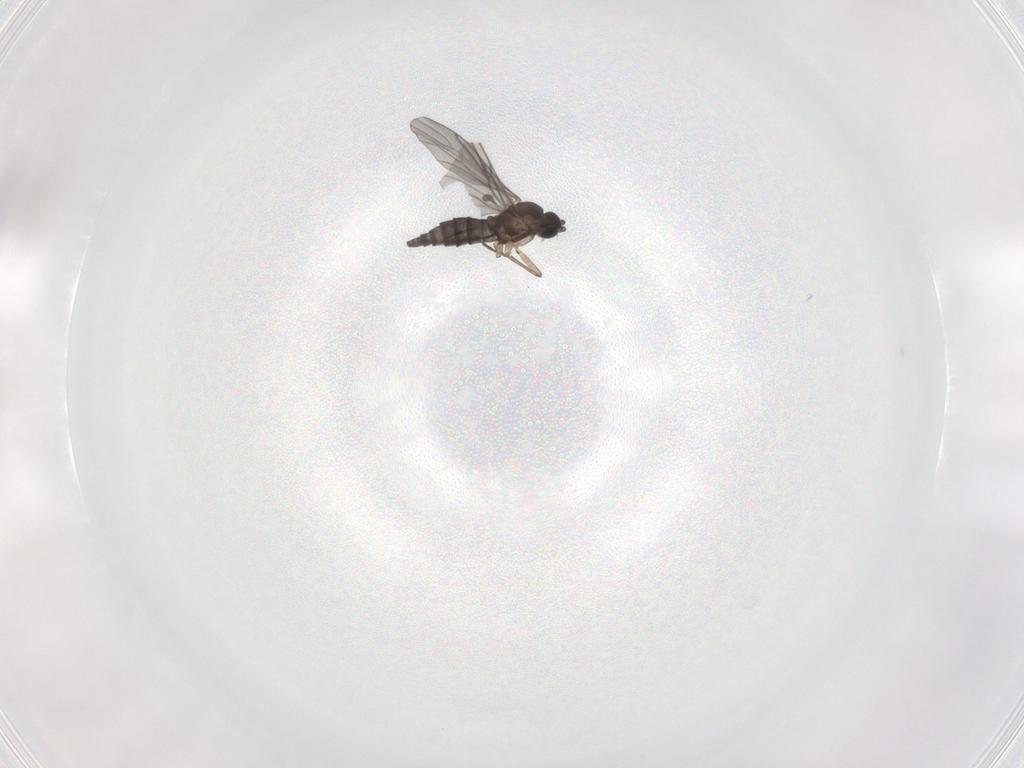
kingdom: Animalia
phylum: Arthropoda
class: Insecta
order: Diptera
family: Sciaridae
